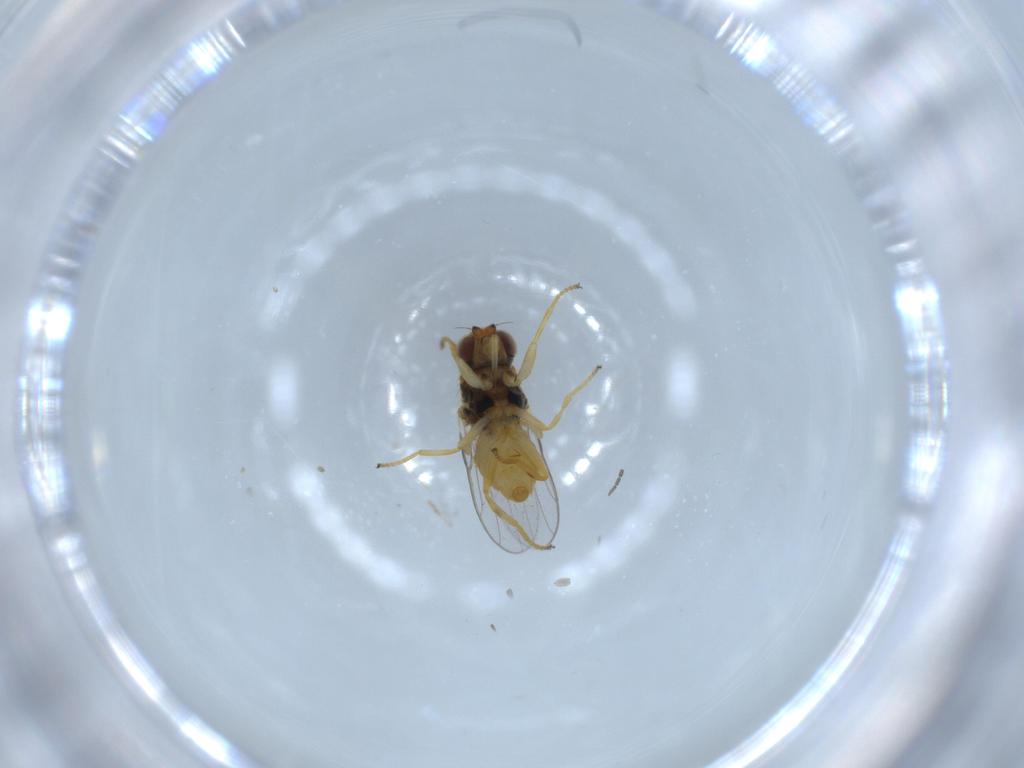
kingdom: Animalia
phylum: Arthropoda
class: Insecta
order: Diptera
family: Chloropidae
